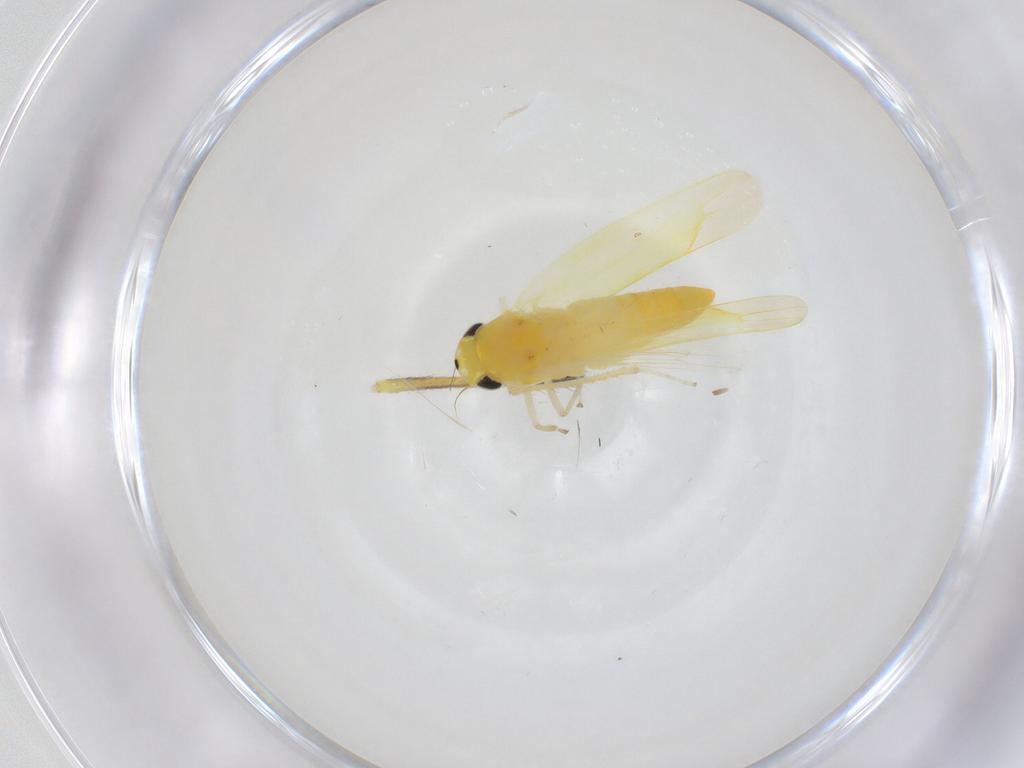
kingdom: Animalia
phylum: Arthropoda
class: Insecta
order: Hemiptera
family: Cicadellidae
